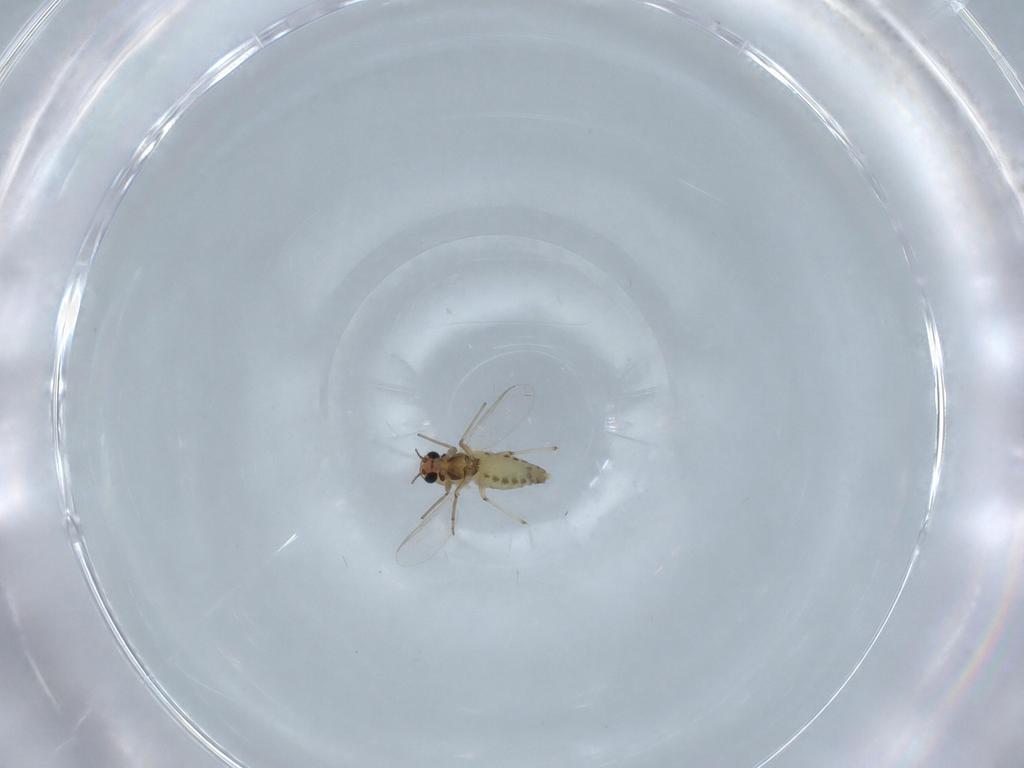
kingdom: Animalia
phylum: Arthropoda
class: Insecta
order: Diptera
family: Chironomidae
